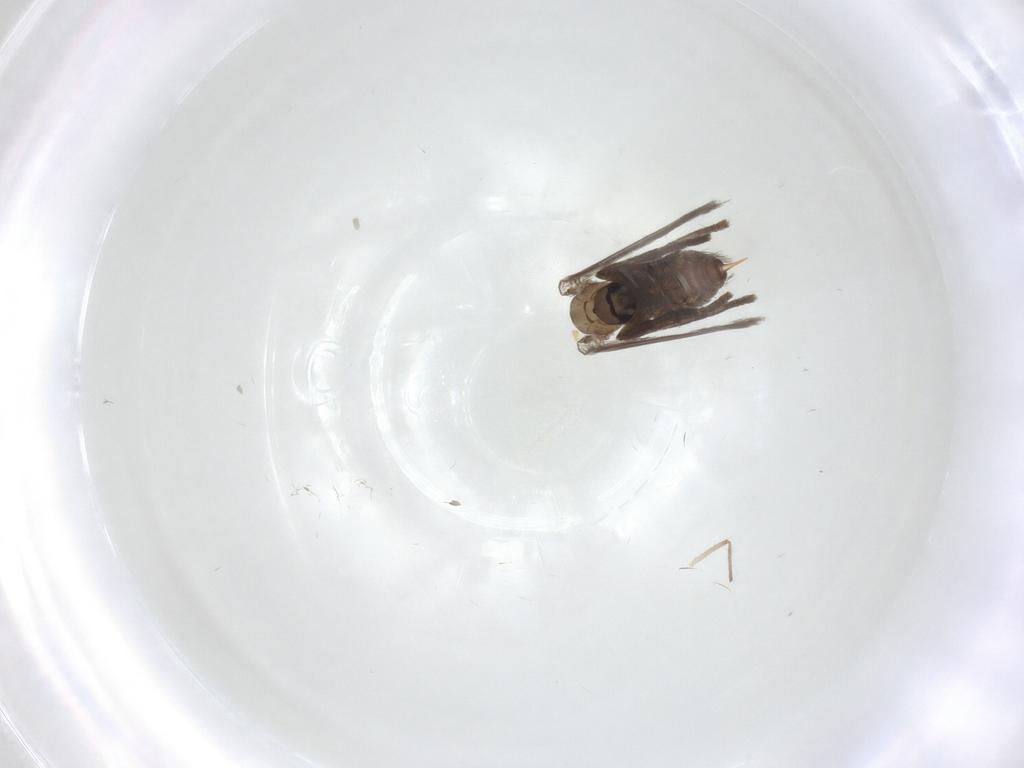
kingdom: Animalia
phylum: Arthropoda
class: Insecta
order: Diptera
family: Psychodidae
